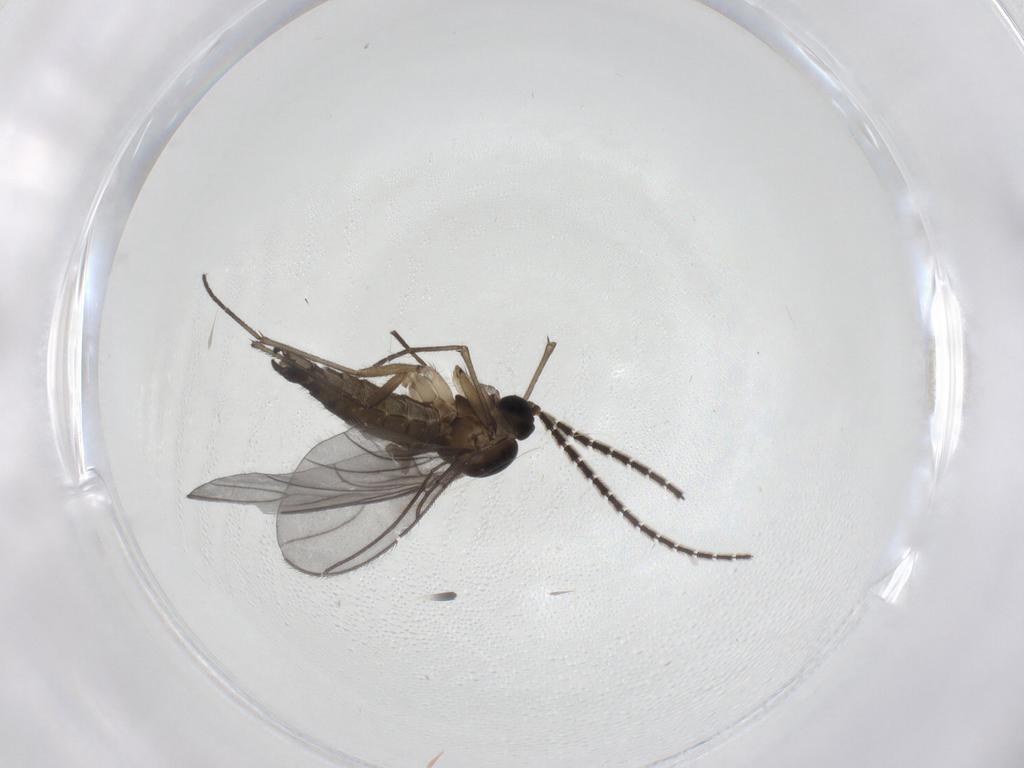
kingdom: Animalia
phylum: Arthropoda
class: Insecta
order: Diptera
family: Sciaridae
